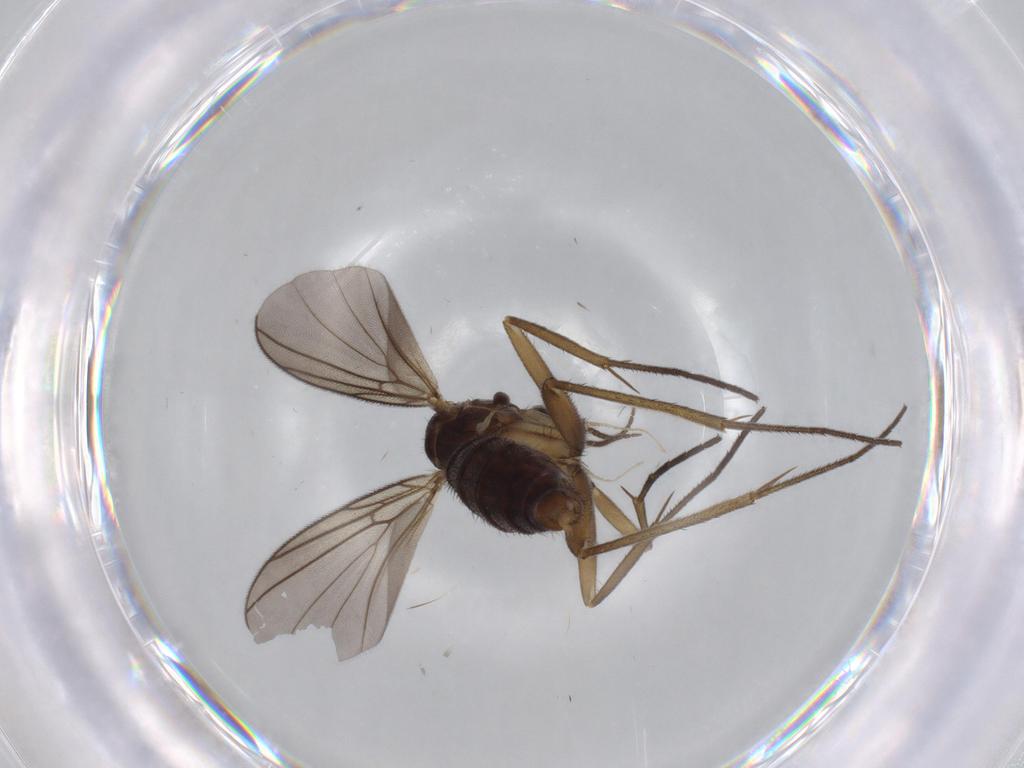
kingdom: Animalia
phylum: Arthropoda
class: Insecta
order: Diptera
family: Mycetophilidae
